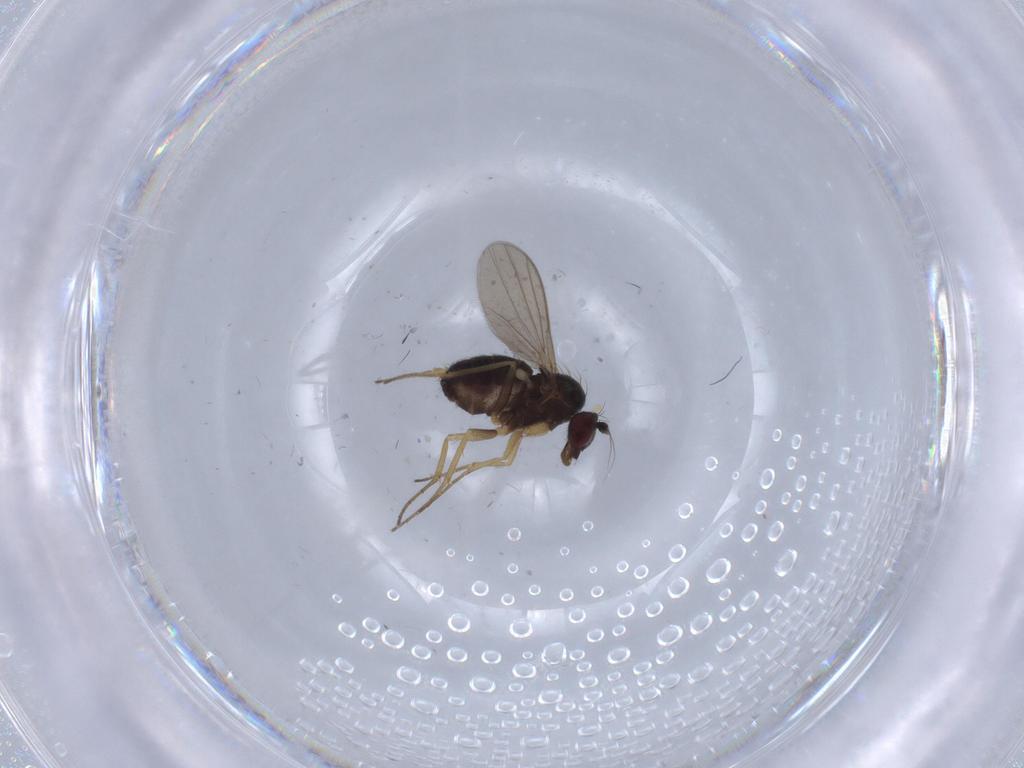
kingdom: Animalia
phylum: Arthropoda
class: Insecta
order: Diptera
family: Dolichopodidae
